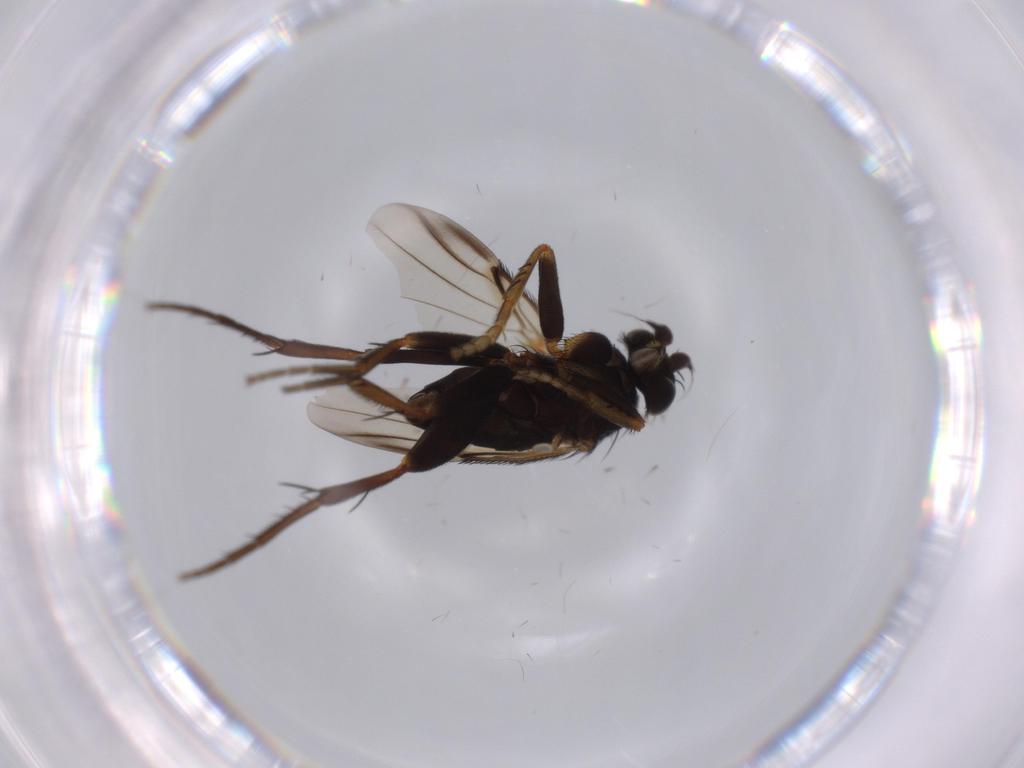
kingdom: Animalia
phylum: Arthropoda
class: Insecta
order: Diptera
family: Phoridae
